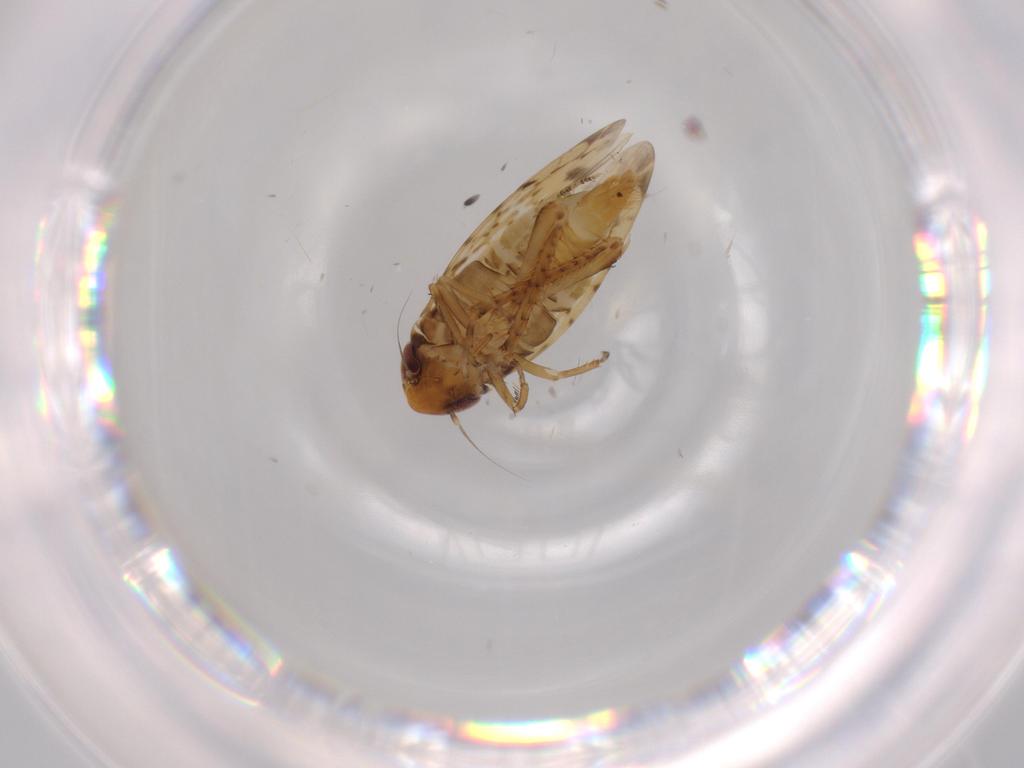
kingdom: Animalia
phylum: Arthropoda
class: Insecta
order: Hemiptera
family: Cicadellidae
